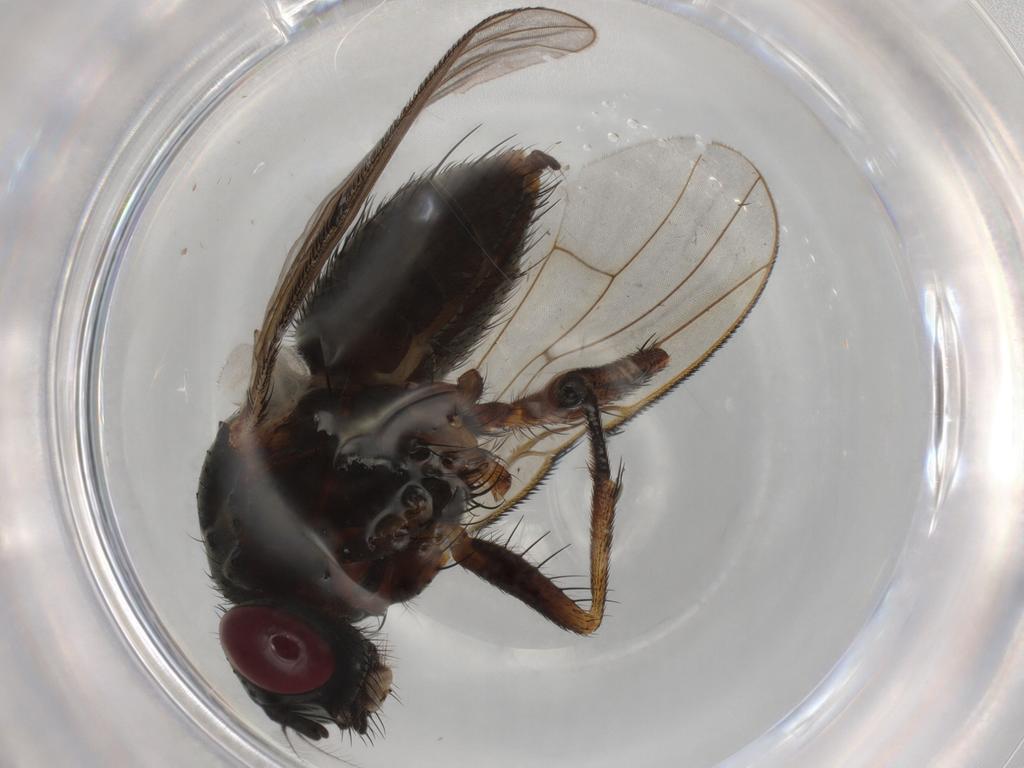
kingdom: Animalia
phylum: Arthropoda
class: Insecta
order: Diptera
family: Muscidae
